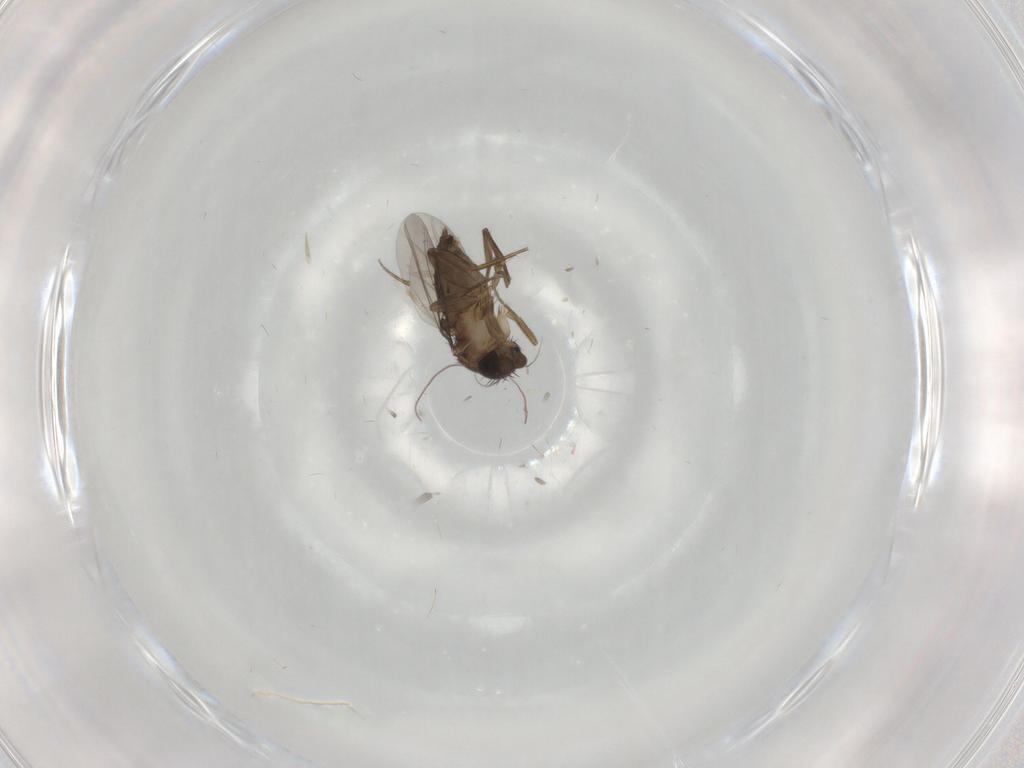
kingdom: Animalia
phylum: Arthropoda
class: Insecta
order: Diptera
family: Phoridae
